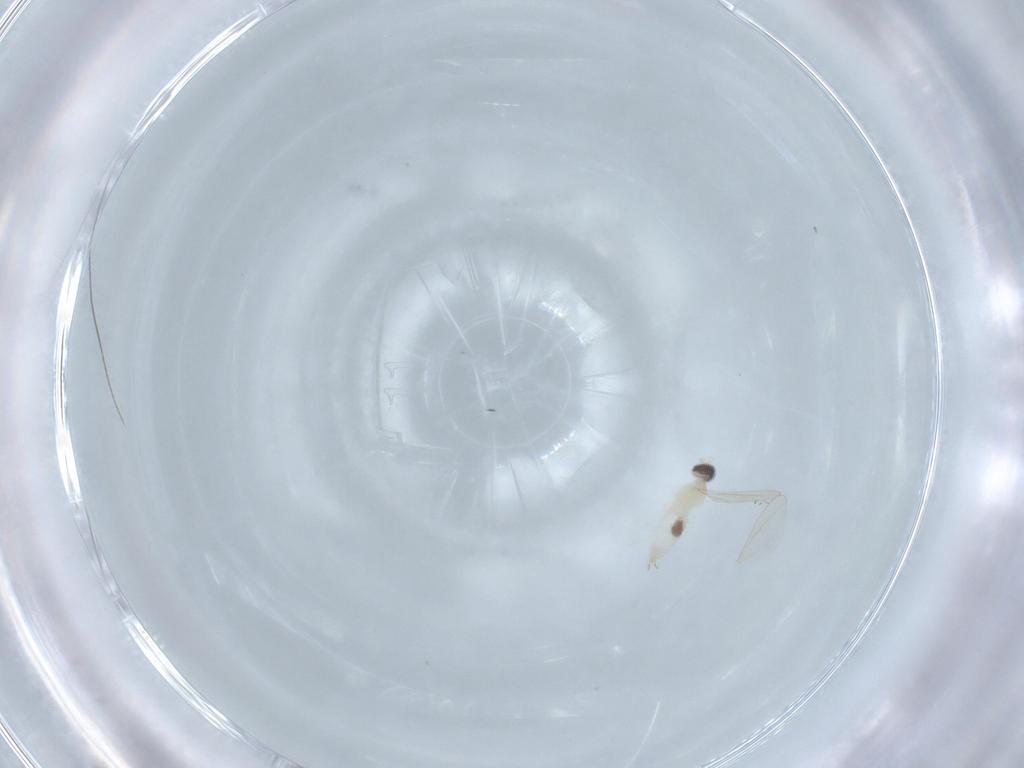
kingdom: Animalia
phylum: Arthropoda
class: Insecta
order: Diptera
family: Cecidomyiidae
